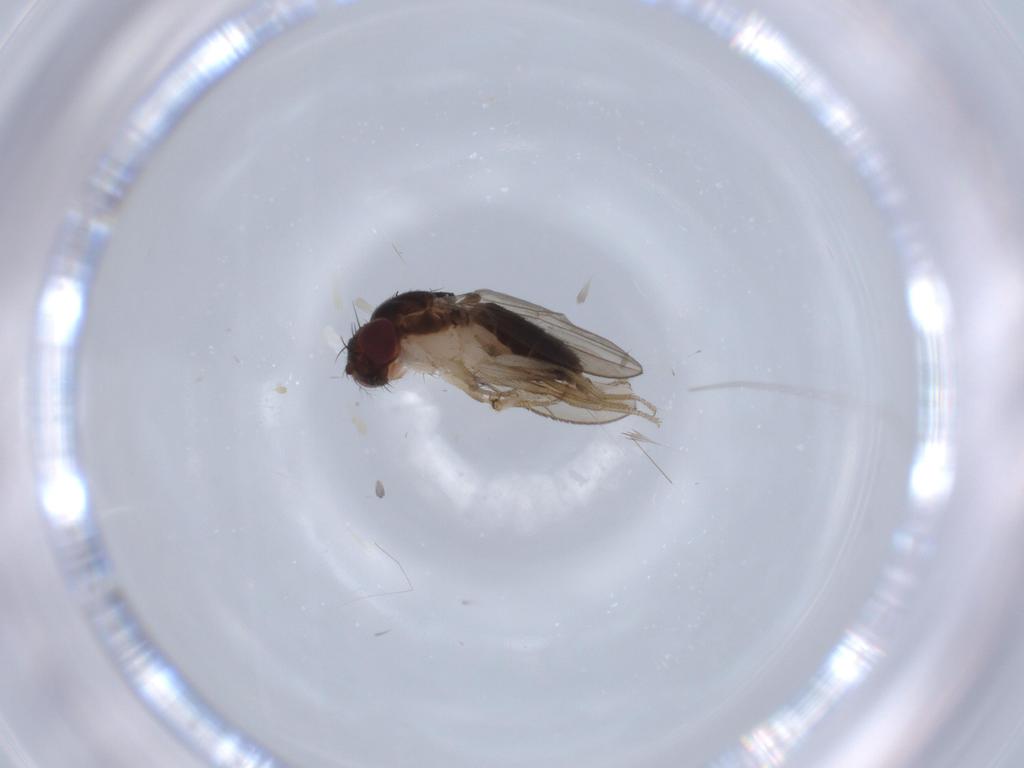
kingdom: Animalia
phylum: Arthropoda
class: Insecta
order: Diptera
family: Drosophilidae
